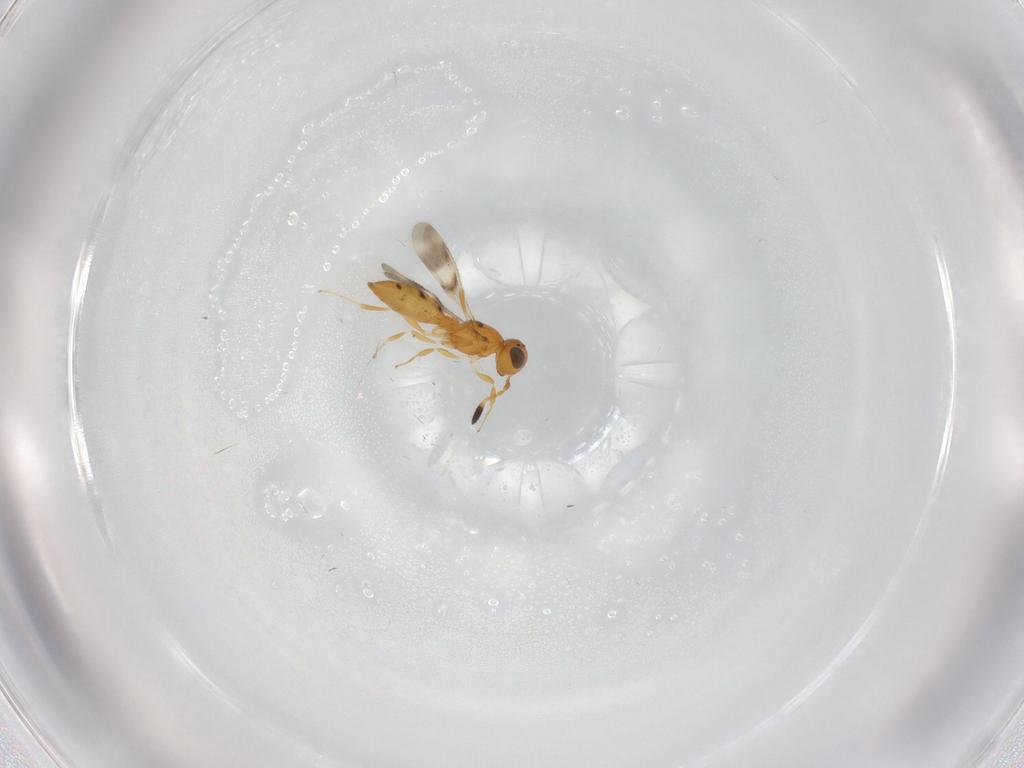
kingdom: Animalia
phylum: Arthropoda
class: Insecta
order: Hymenoptera
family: Scelionidae
